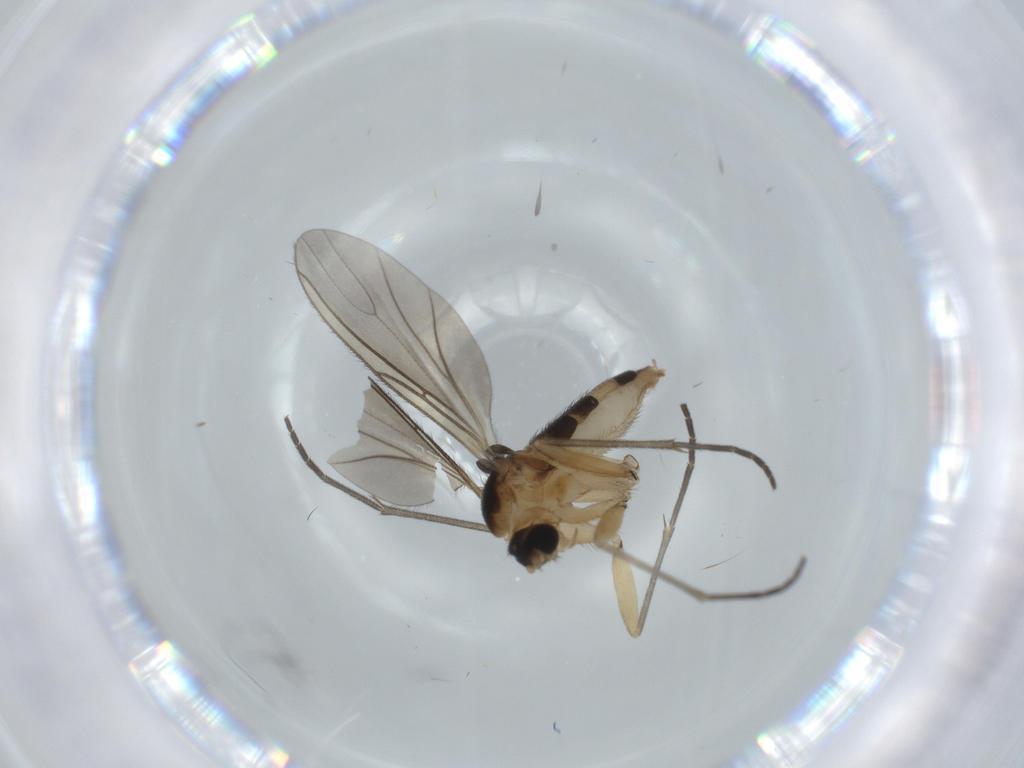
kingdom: Animalia
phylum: Arthropoda
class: Insecta
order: Diptera
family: Sciaridae
